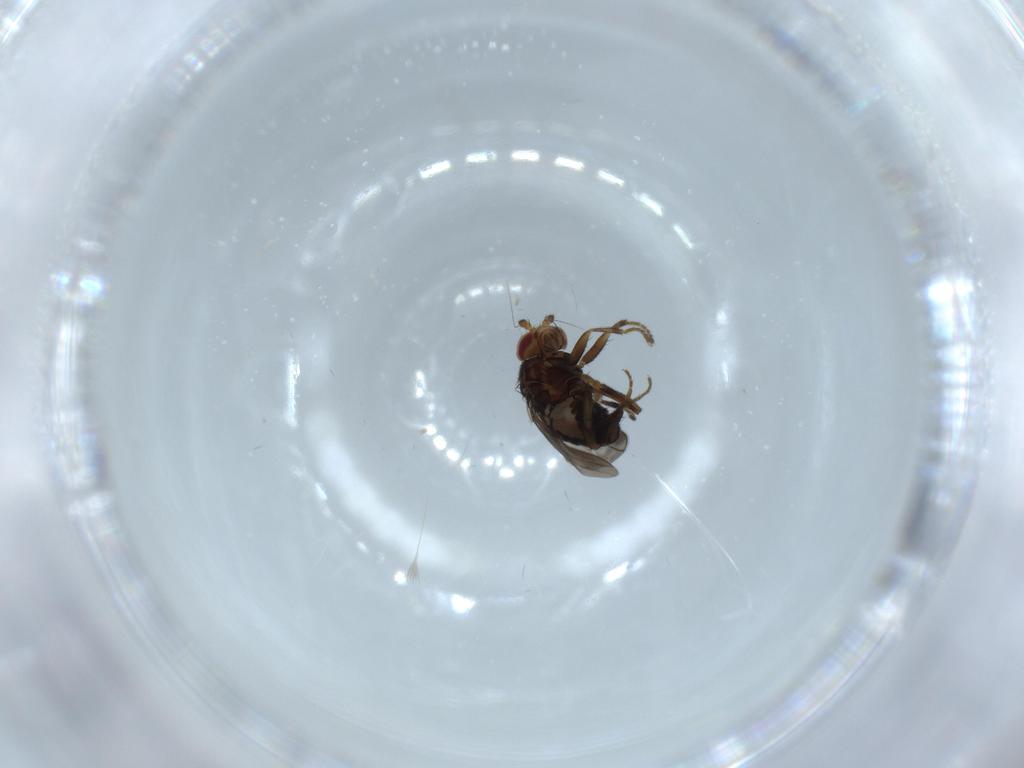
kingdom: Animalia
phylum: Arthropoda
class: Insecta
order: Diptera
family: Sphaeroceridae
